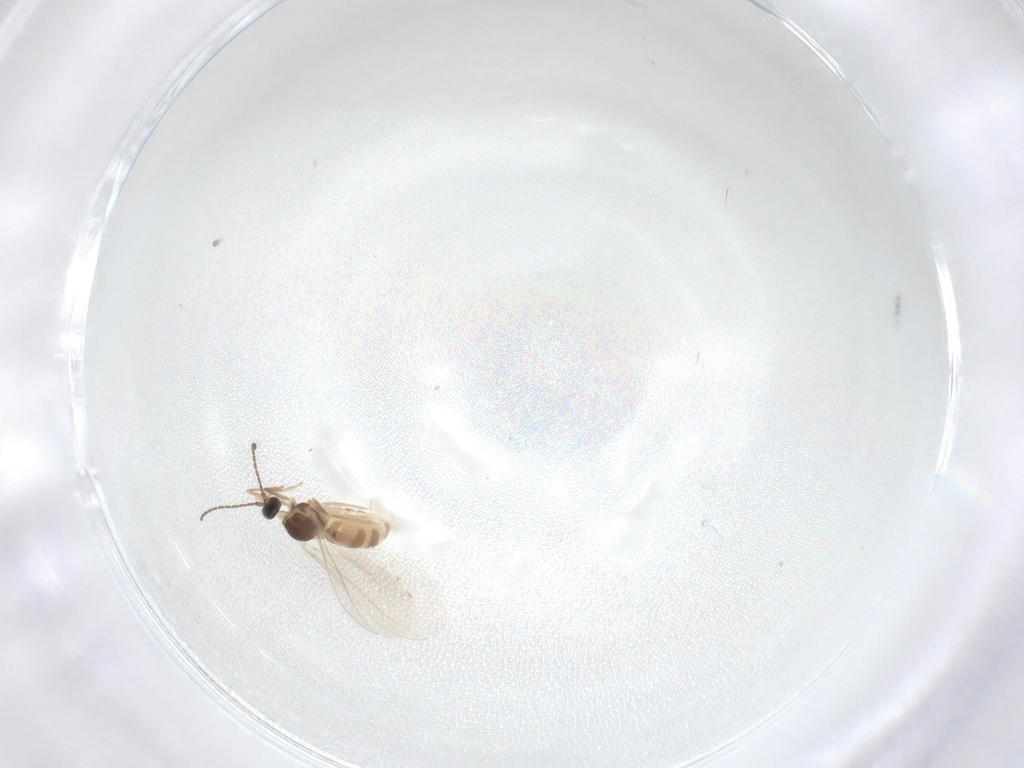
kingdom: Animalia
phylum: Arthropoda
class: Insecta
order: Diptera
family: Cecidomyiidae
